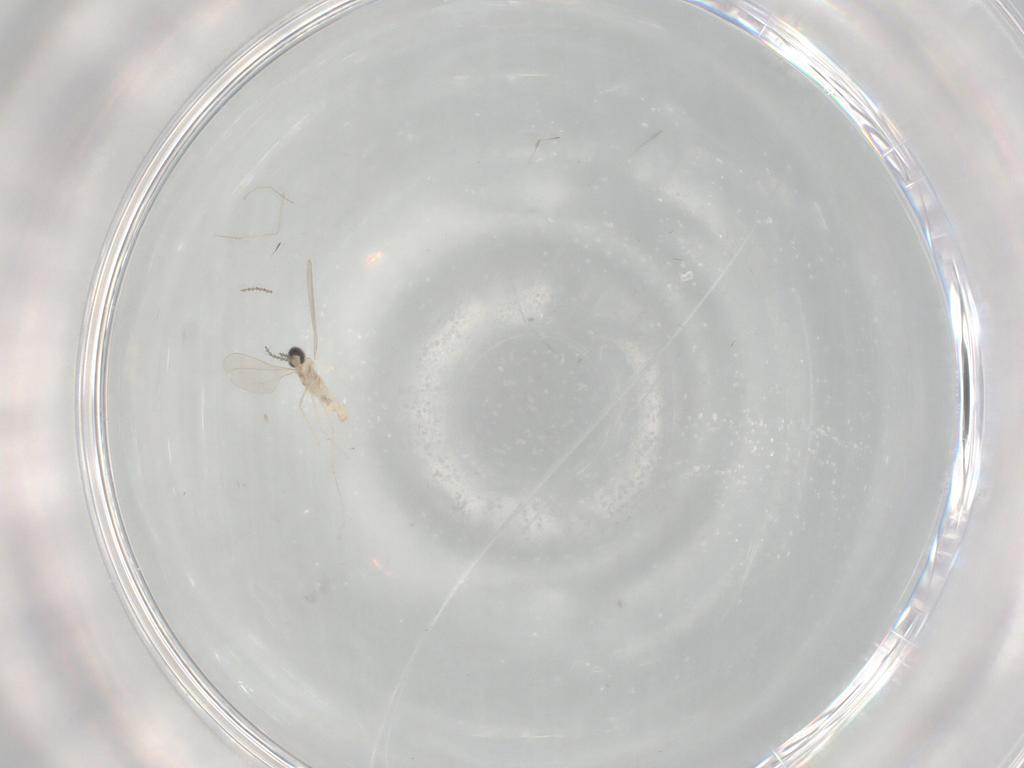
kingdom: Animalia
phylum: Arthropoda
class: Insecta
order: Diptera
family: Cecidomyiidae
